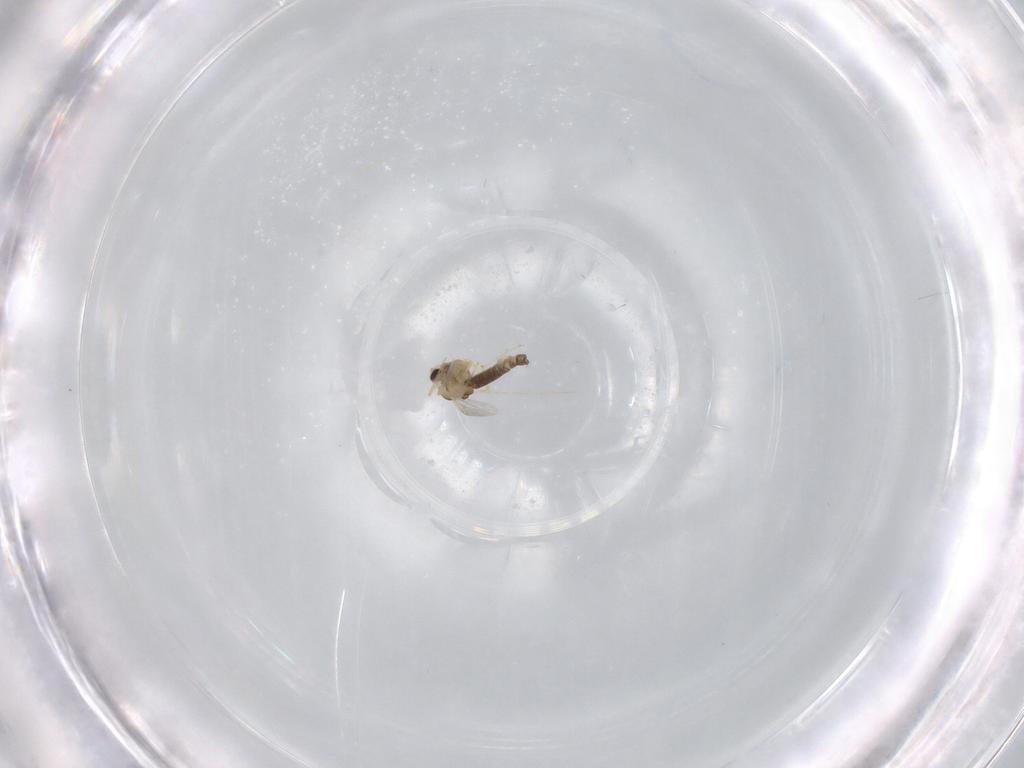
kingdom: Animalia
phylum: Arthropoda
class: Insecta
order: Diptera
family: Chironomidae
